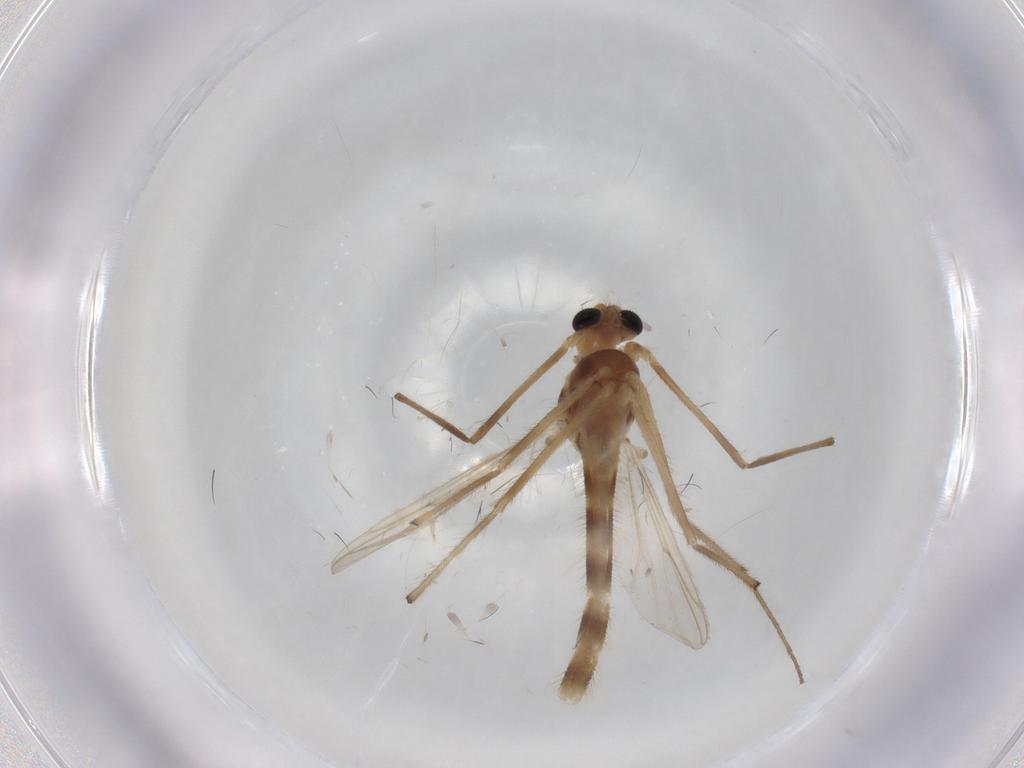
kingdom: Animalia
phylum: Arthropoda
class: Insecta
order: Diptera
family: Chironomidae
